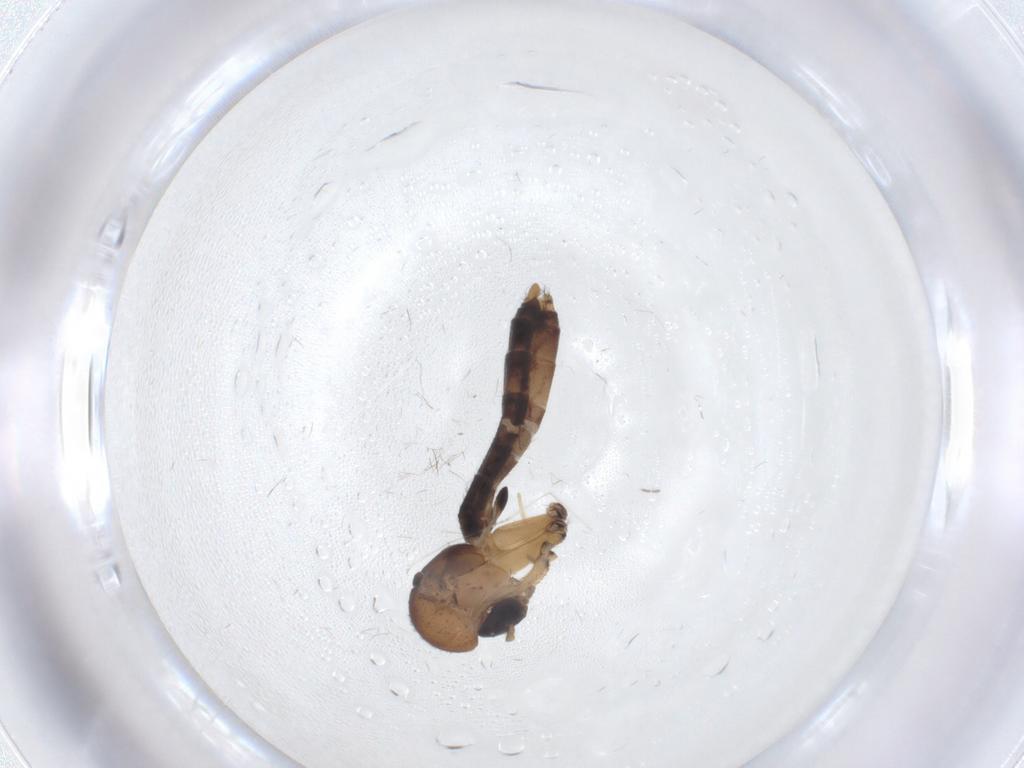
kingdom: Animalia
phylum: Arthropoda
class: Insecta
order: Diptera
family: Mycetophilidae
